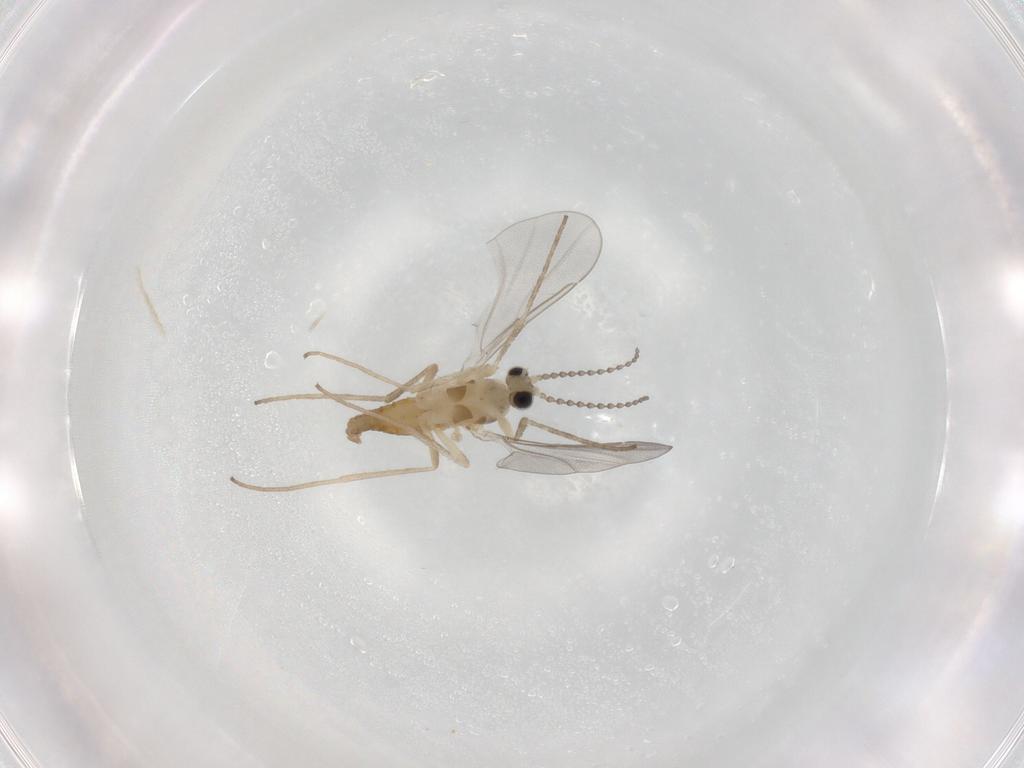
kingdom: Animalia
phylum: Arthropoda
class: Insecta
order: Diptera
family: Cecidomyiidae
